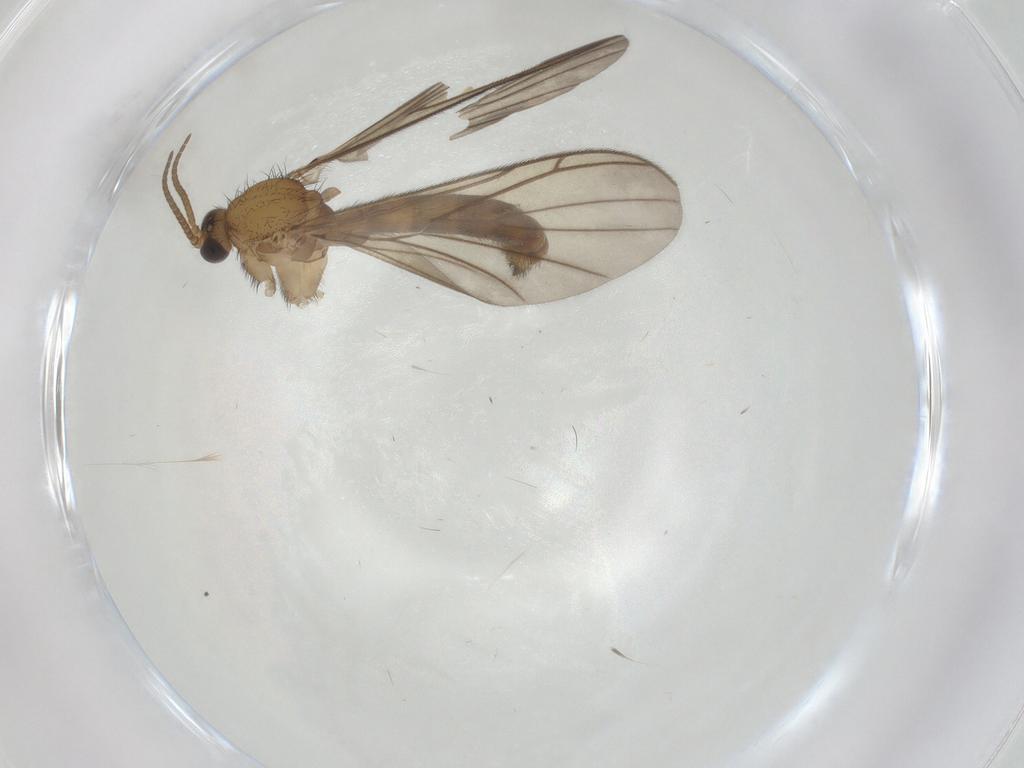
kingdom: Animalia
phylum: Arthropoda
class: Insecta
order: Diptera
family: Keroplatidae
